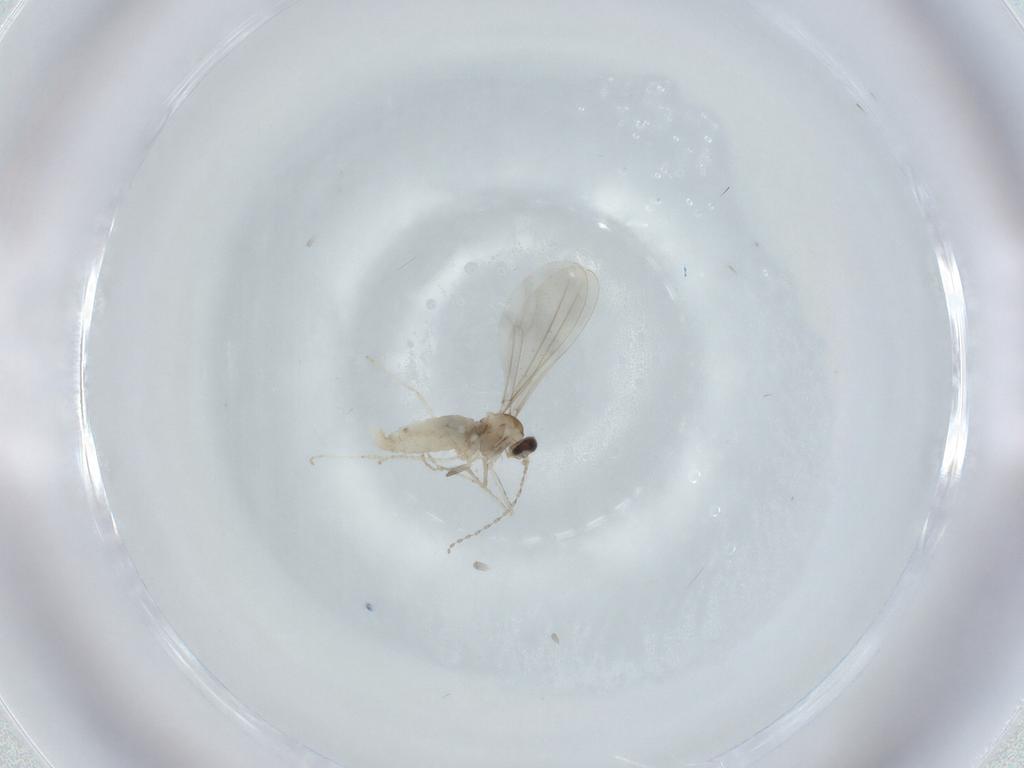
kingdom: Animalia
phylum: Arthropoda
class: Insecta
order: Diptera
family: Cecidomyiidae
